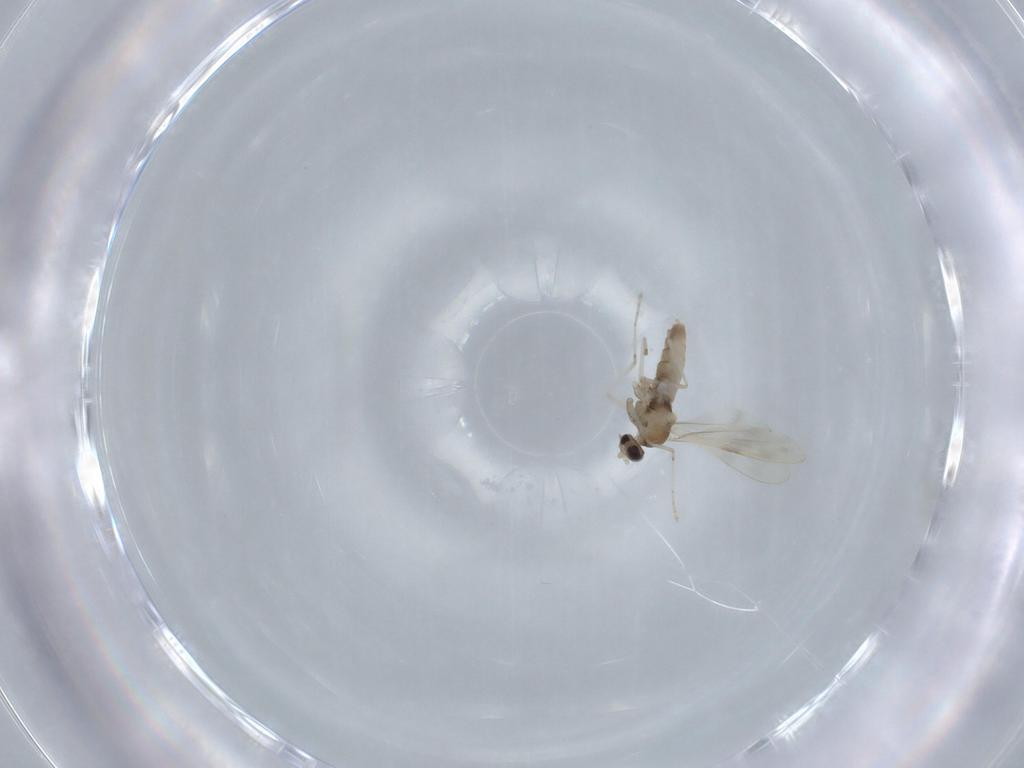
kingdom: Animalia
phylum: Arthropoda
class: Insecta
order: Diptera
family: Cecidomyiidae
